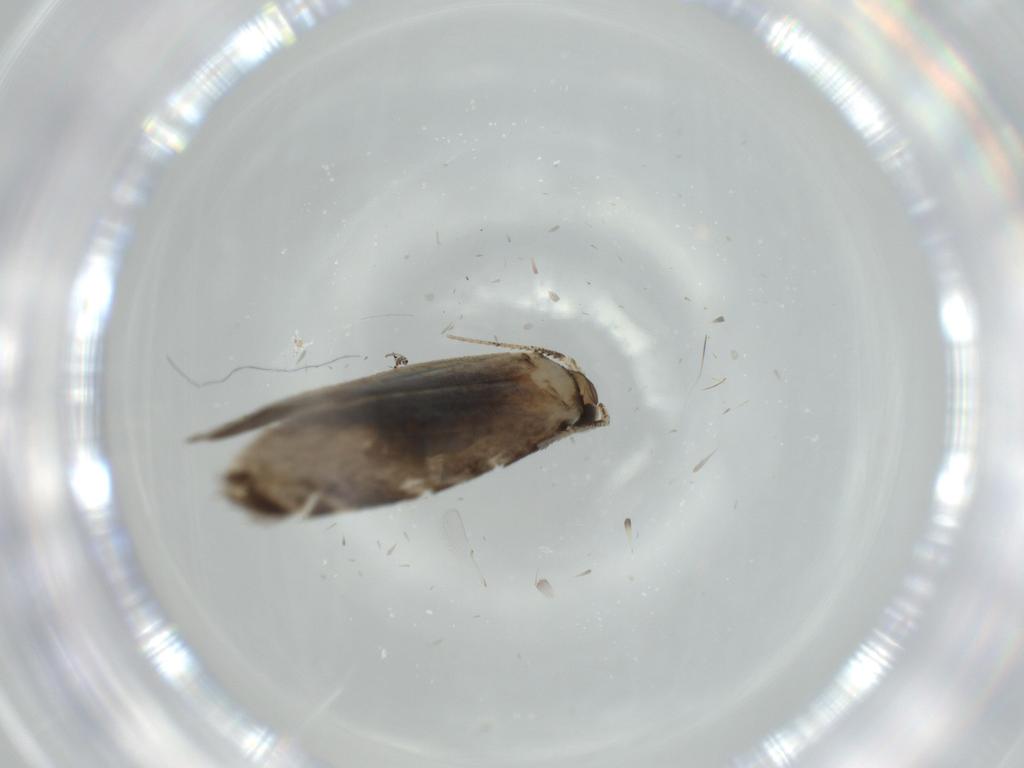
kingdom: Animalia
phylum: Arthropoda
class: Insecta
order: Lepidoptera
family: Tineidae
